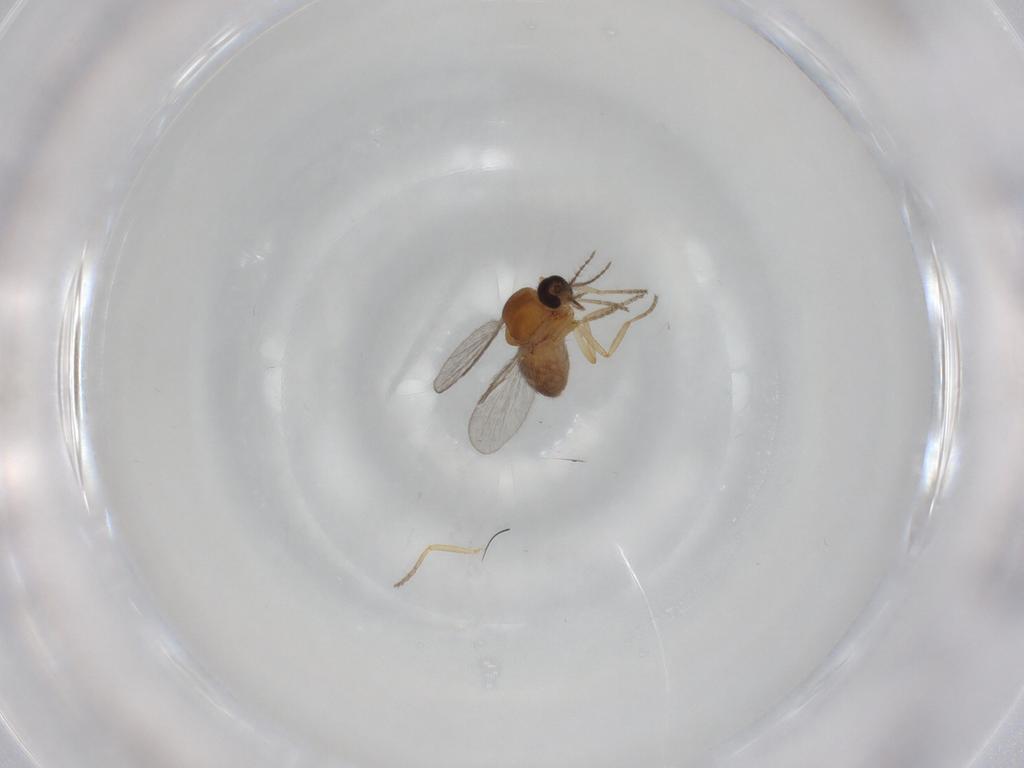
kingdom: Animalia
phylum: Arthropoda
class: Insecta
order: Diptera
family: Ceratopogonidae
